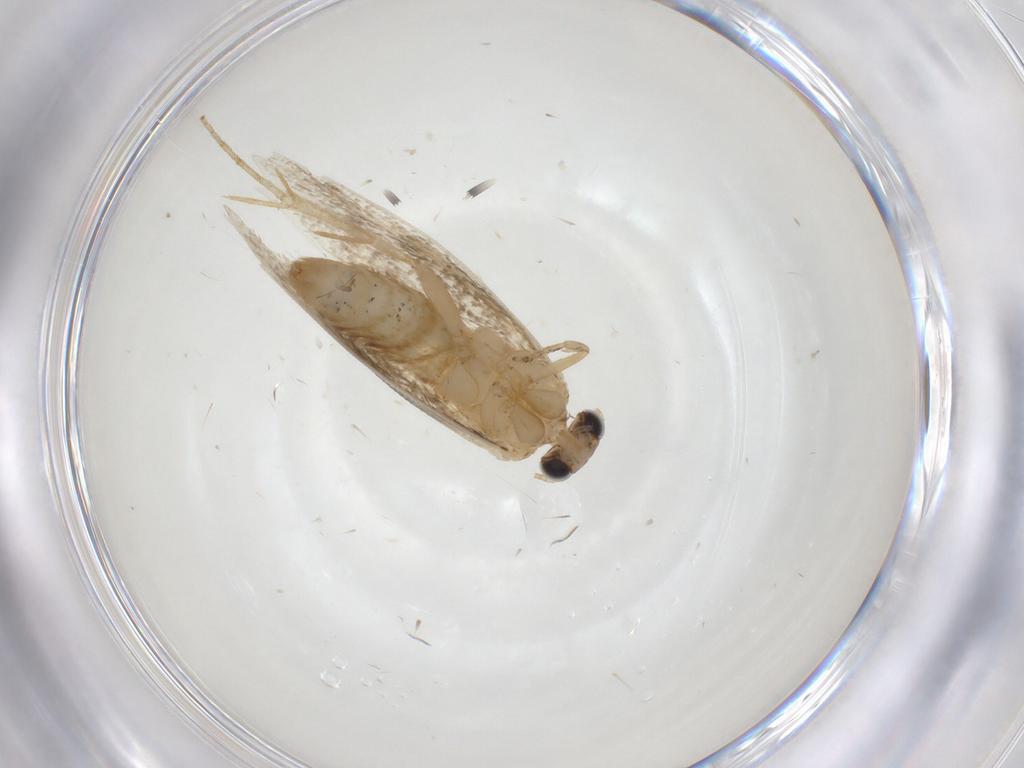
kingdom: Animalia
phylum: Arthropoda
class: Insecta
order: Lepidoptera
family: Tineidae
